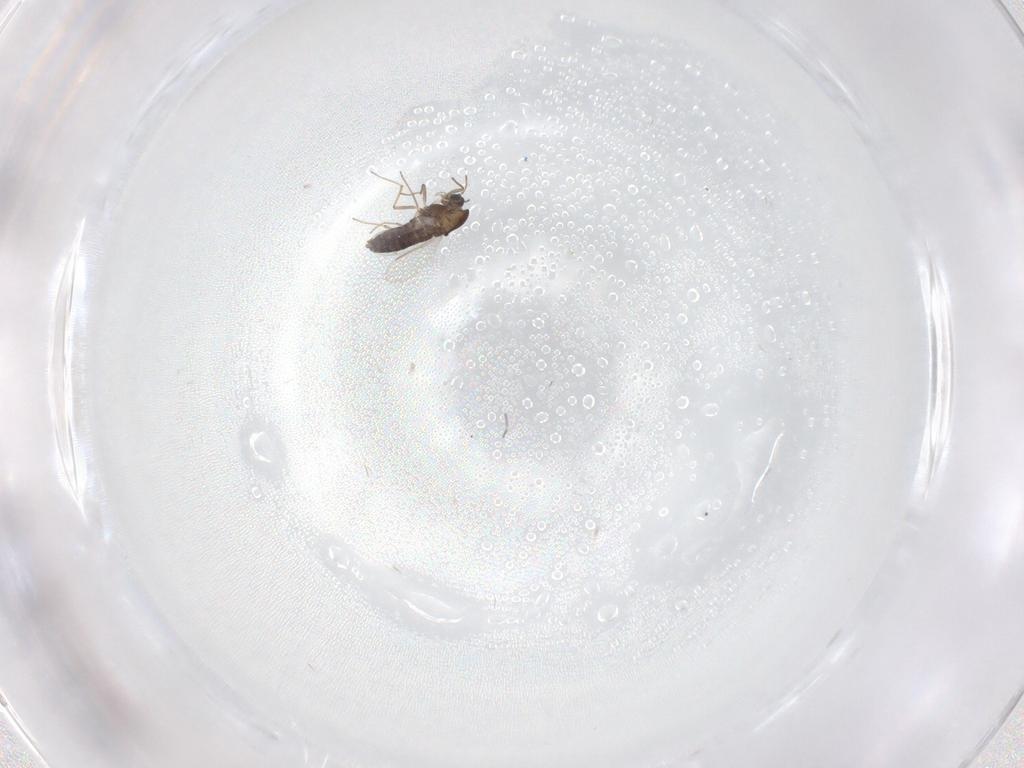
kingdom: Animalia
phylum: Arthropoda
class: Insecta
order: Diptera
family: Chironomidae
